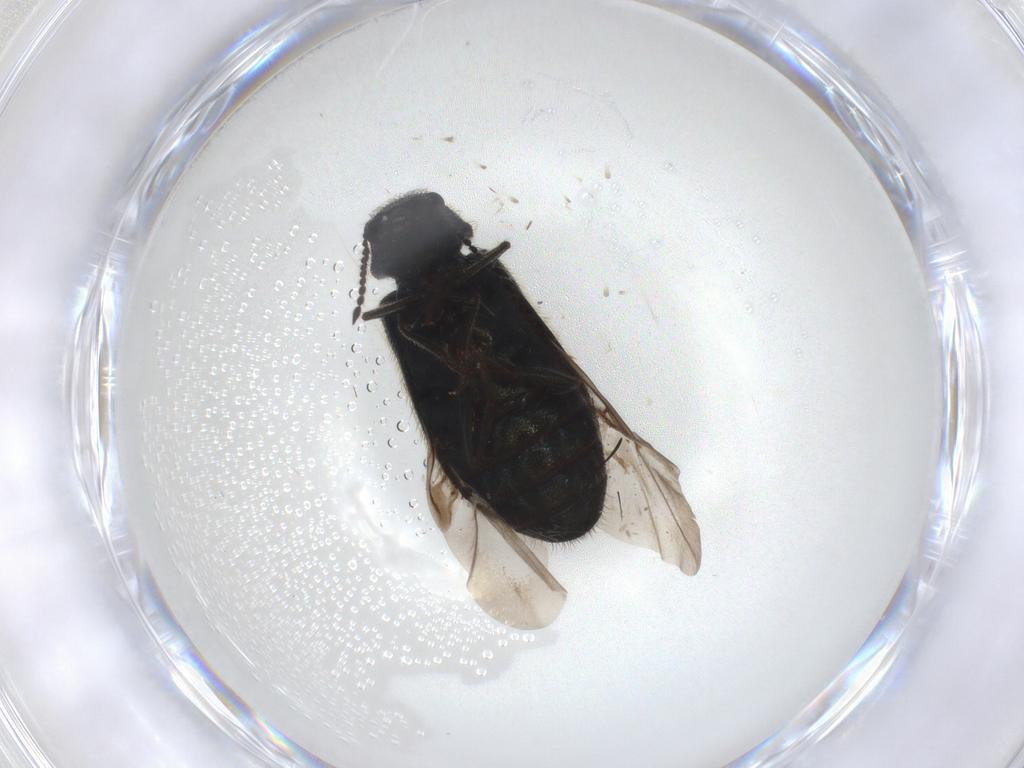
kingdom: Animalia
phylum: Arthropoda
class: Insecta
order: Coleoptera
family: Melyridae
